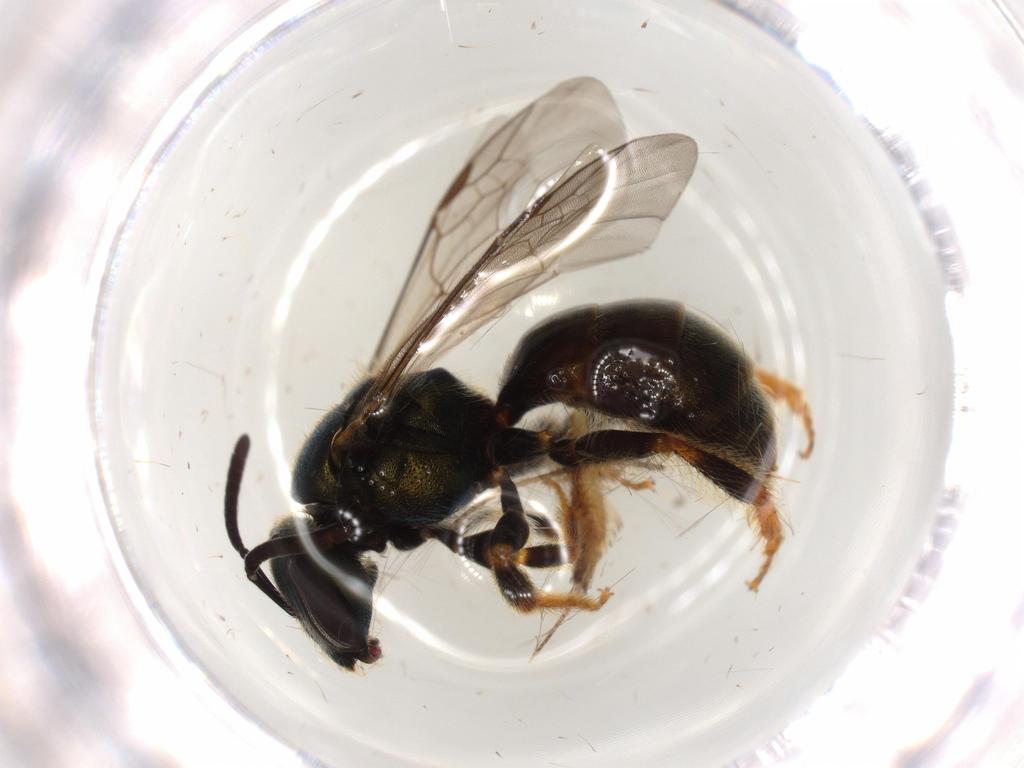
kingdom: Animalia
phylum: Arthropoda
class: Insecta
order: Hymenoptera
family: Halictidae
